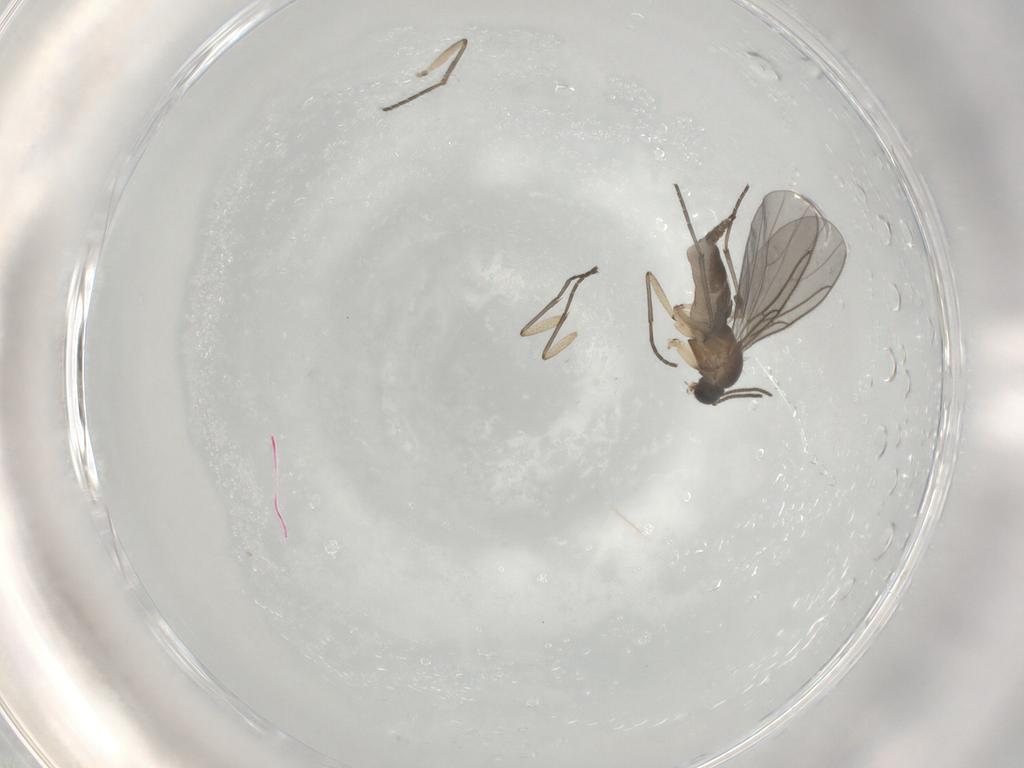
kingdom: Animalia
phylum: Arthropoda
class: Insecta
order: Diptera
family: Sciaridae
